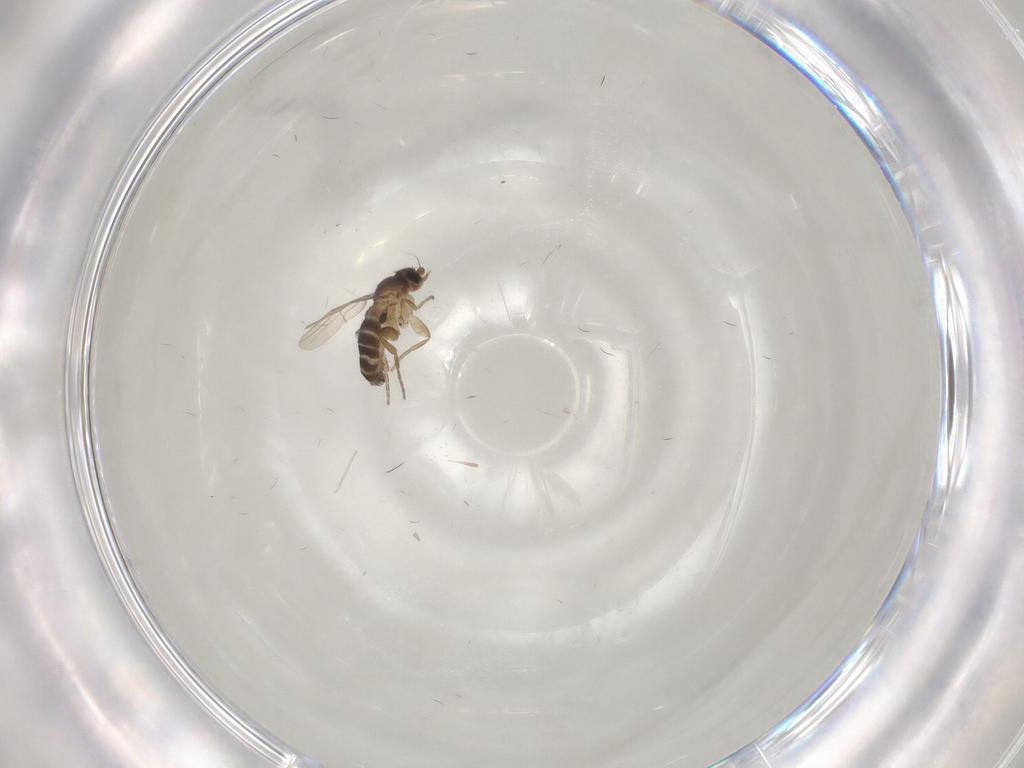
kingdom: Animalia
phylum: Arthropoda
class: Insecta
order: Diptera
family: Phoridae
